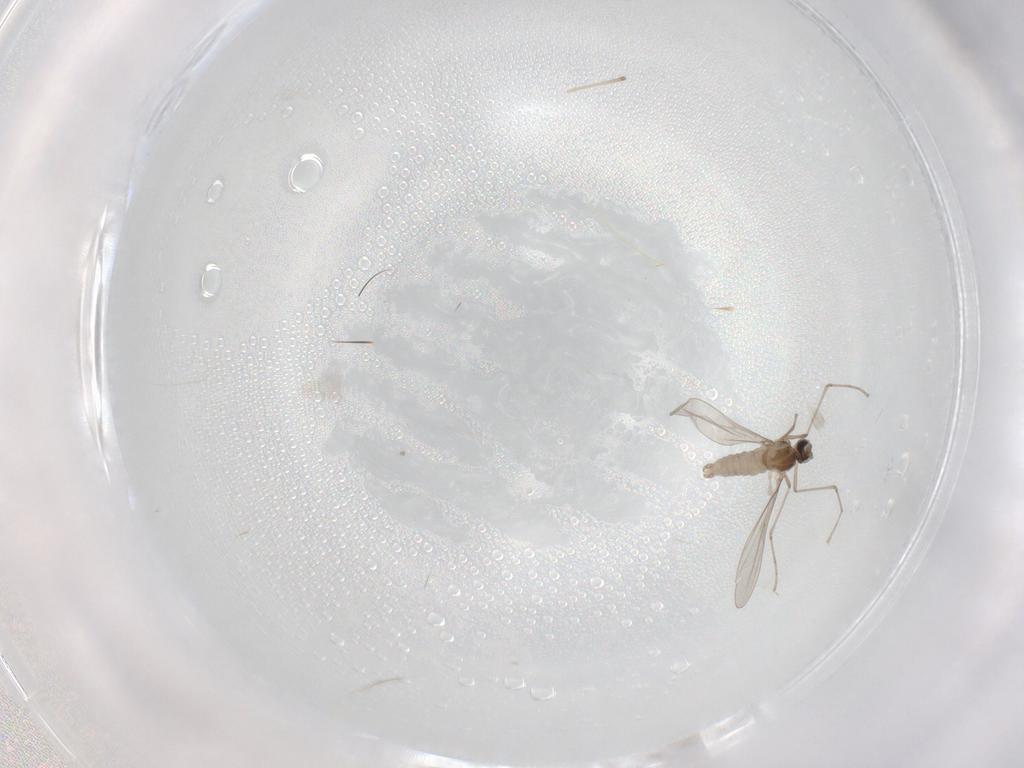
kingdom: Animalia
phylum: Arthropoda
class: Insecta
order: Diptera
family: Cecidomyiidae
